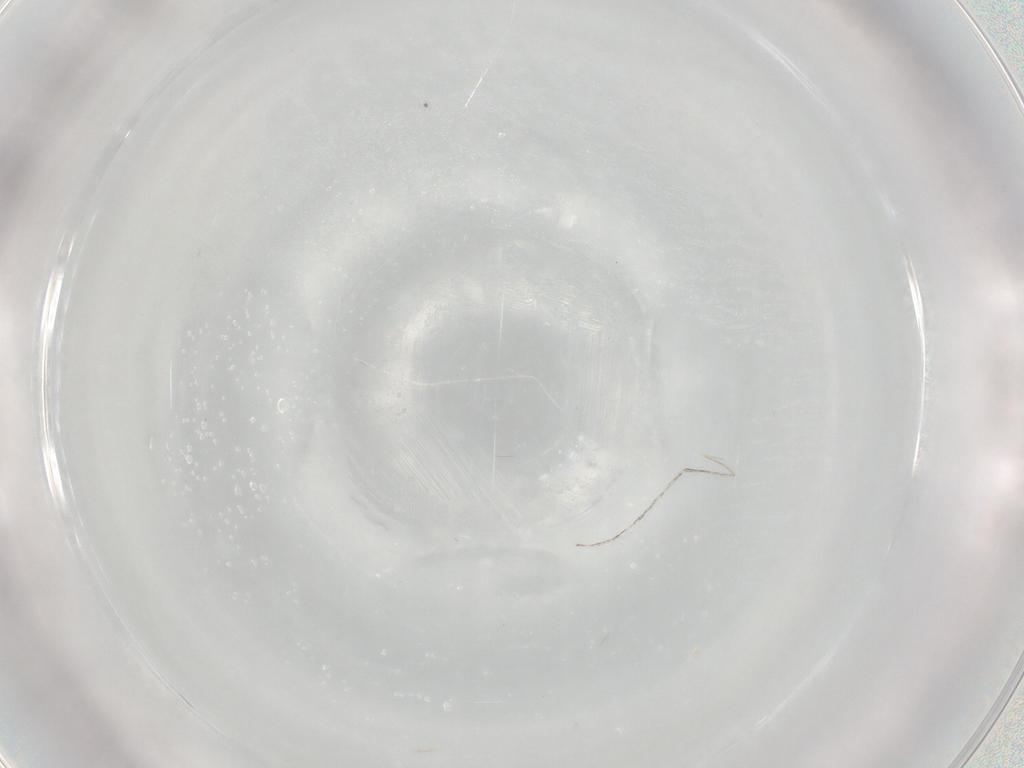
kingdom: Animalia
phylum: Arthropoda
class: Insecta
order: Diptera
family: Cecidomyiidae
